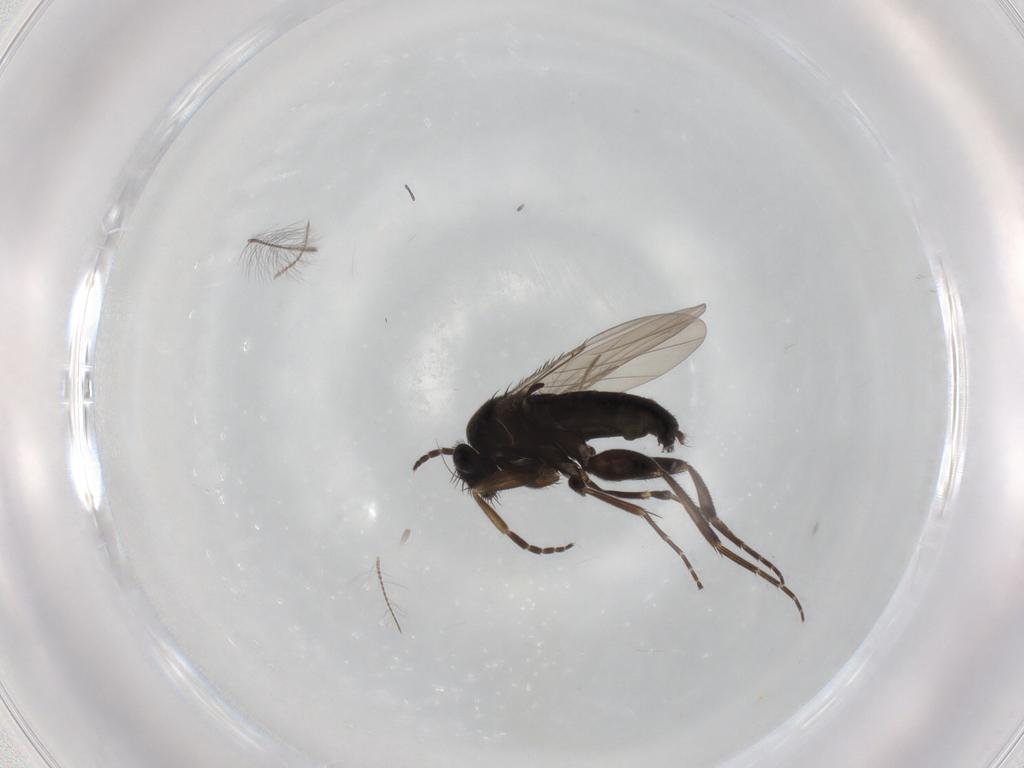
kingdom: Animalia
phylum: Arthropoda
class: Insecta
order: Diptera
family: Phoridae
